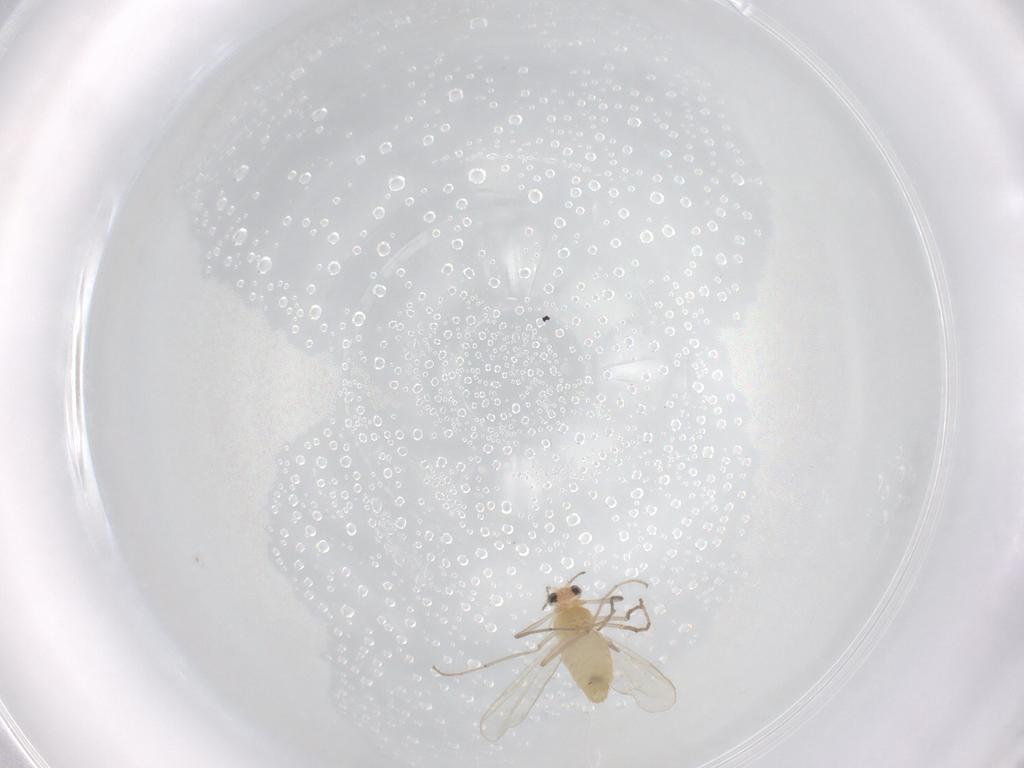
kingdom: Animalia
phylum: Arthropoda
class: Insecta
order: Diptera
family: Chironomidae
